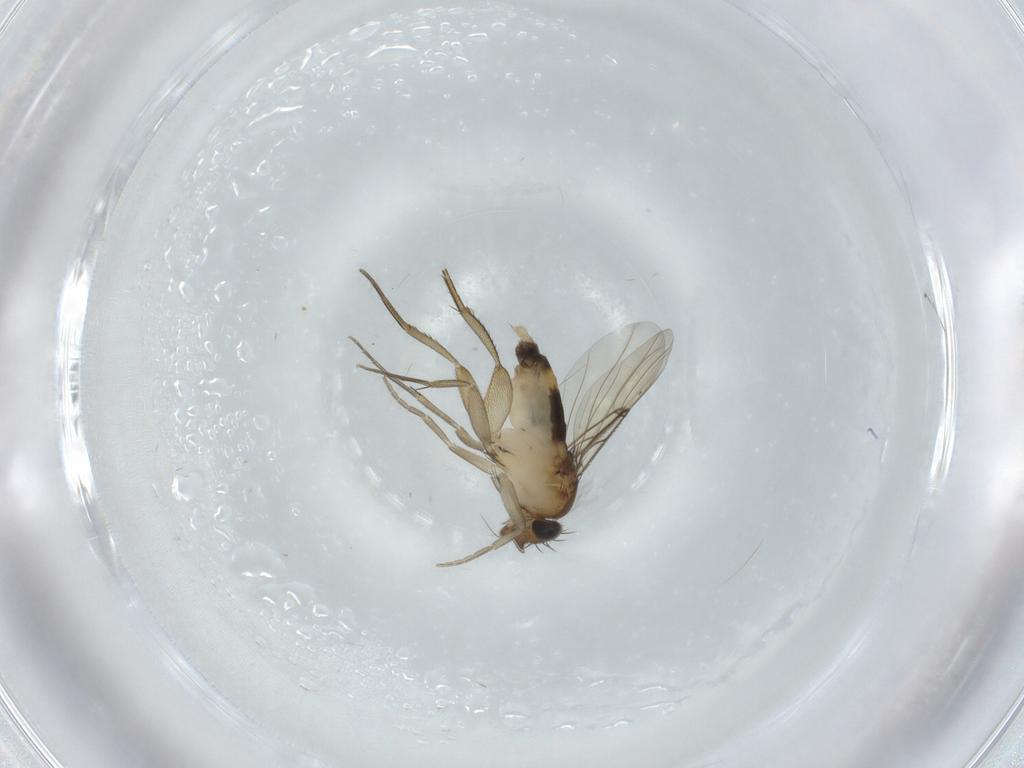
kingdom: Animalia
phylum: Arthropoda
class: Insecta
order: Diptera
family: Phoridae
